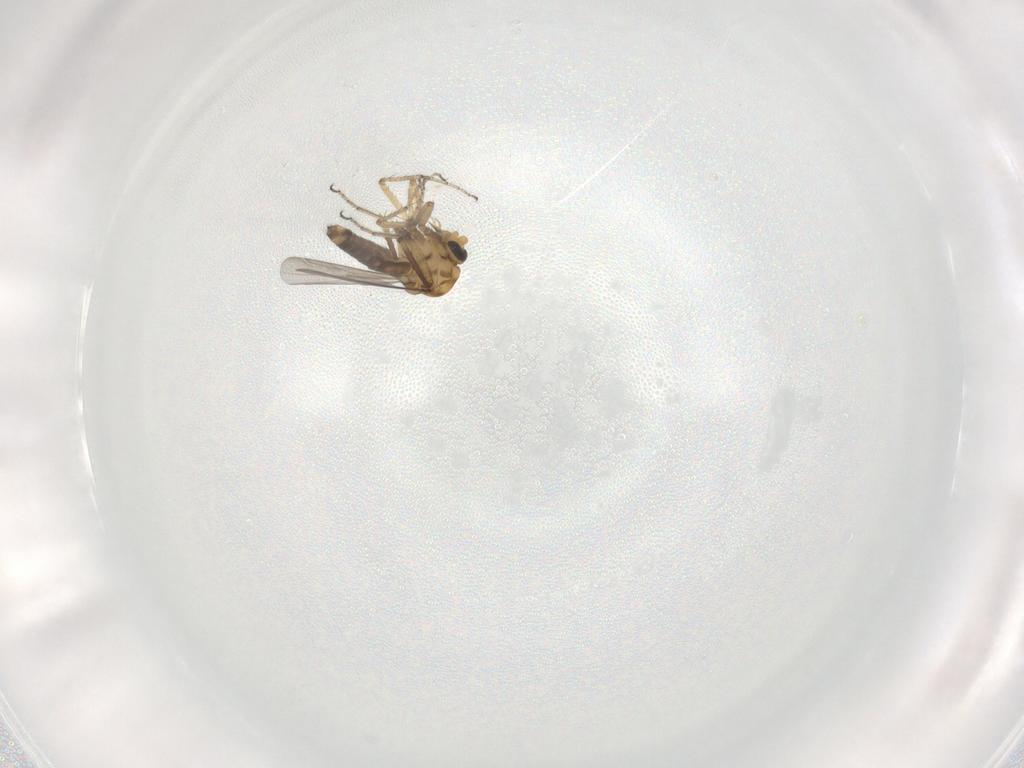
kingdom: Animalia
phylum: Arthropoda
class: Insecta
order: Diptera
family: Ceratopogonidae
